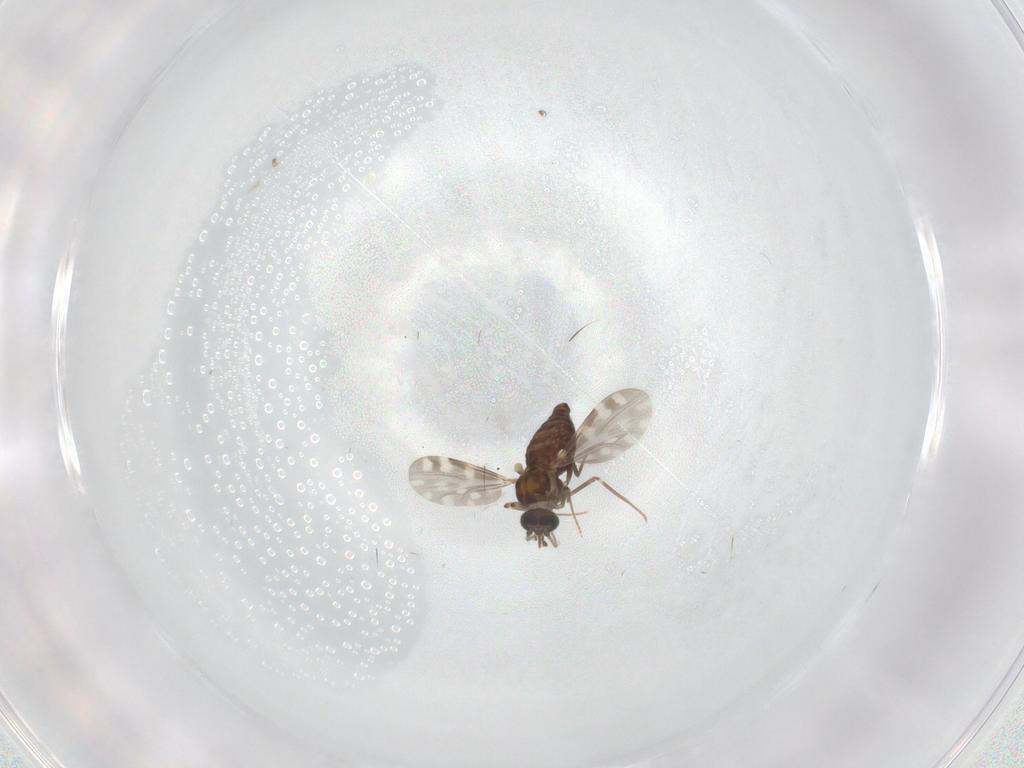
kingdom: Animalia
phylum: Arthropoda
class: Insecta
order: Diptera
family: Ceratopogonidae
